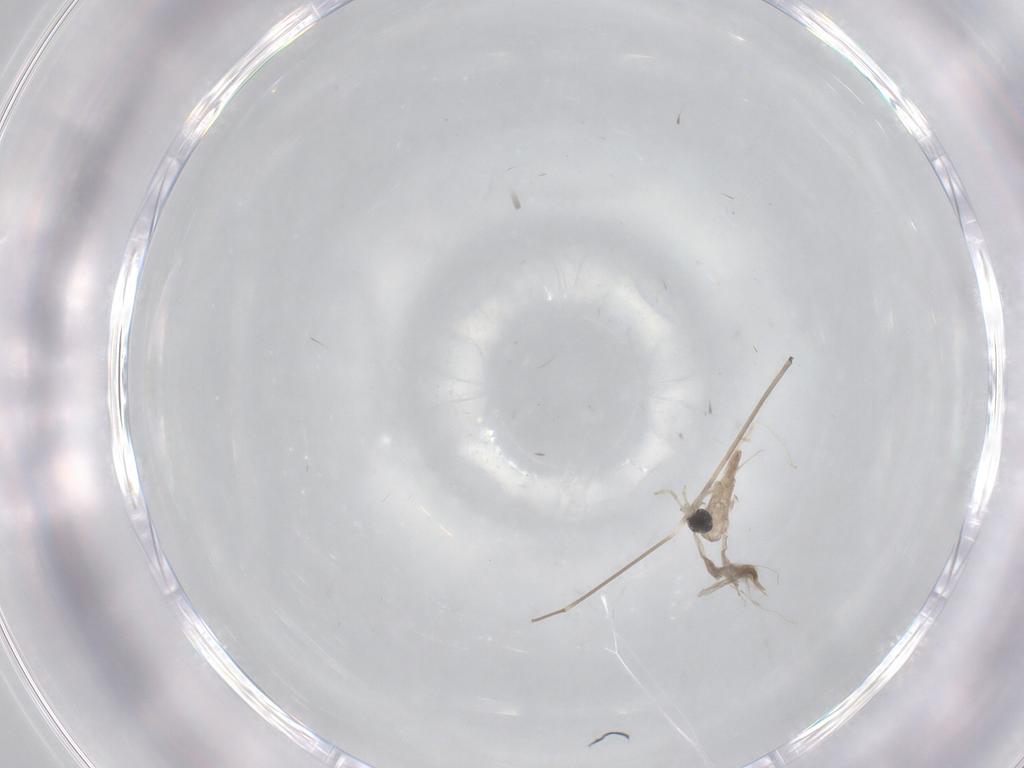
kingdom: Animalia
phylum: Arthropoda
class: Insecta
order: Diptera
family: Limoniidae
